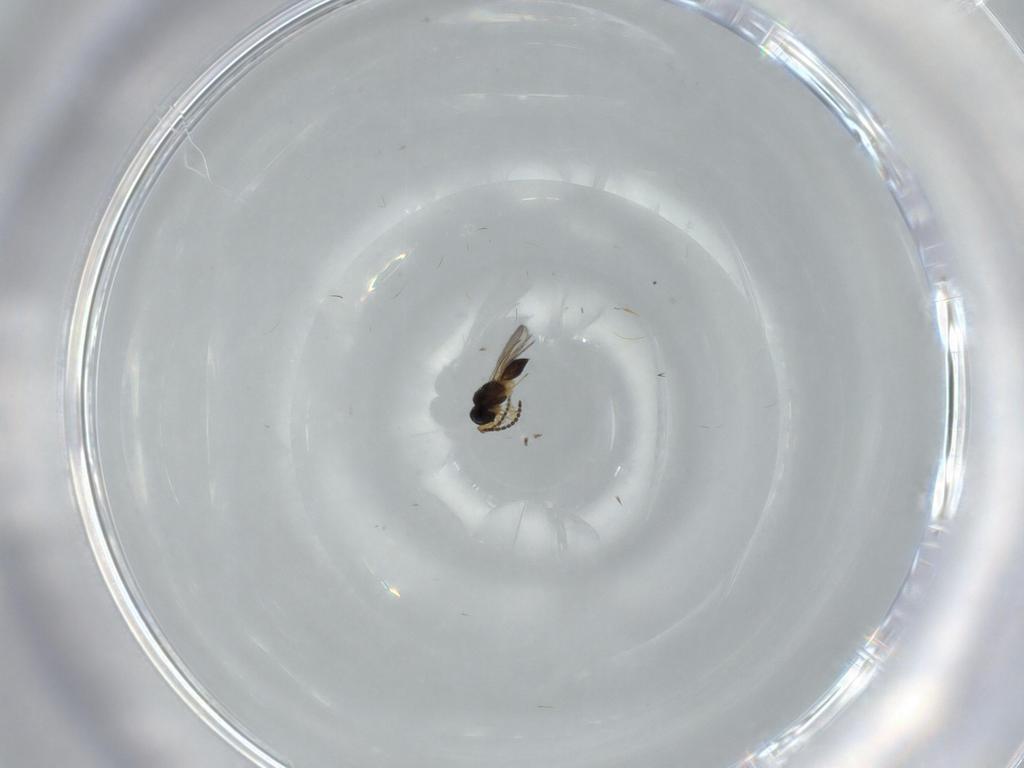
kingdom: Animalia
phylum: Arthropoda
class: Insecta
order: Hymenoptera
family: Scelionidae
